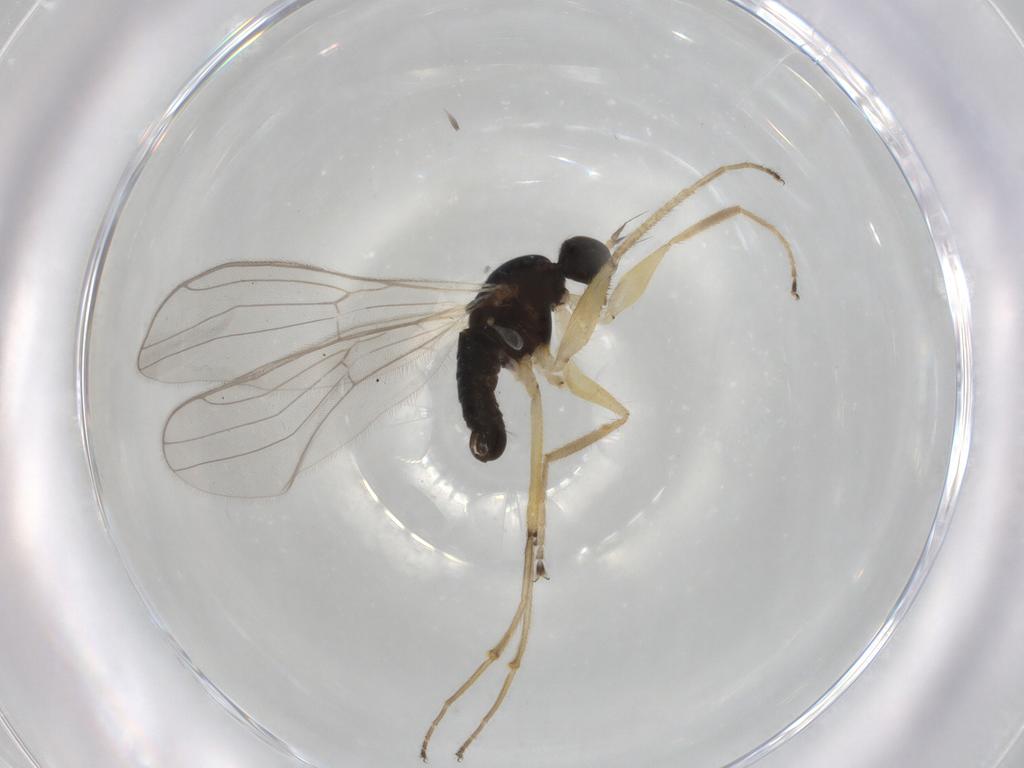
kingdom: Animalia
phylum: Arthropoda
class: Insecta
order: Diptera
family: Hybotidae
